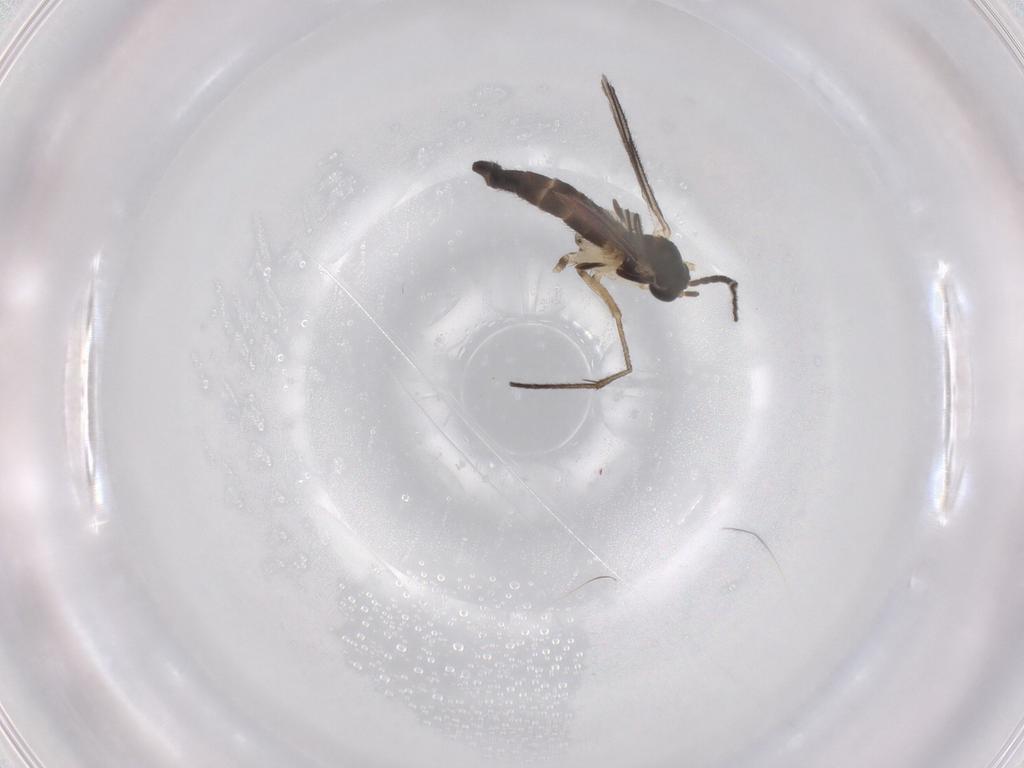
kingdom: Animalia
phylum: Arthropoda
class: Insecta
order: Diptera
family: Sciaridae
